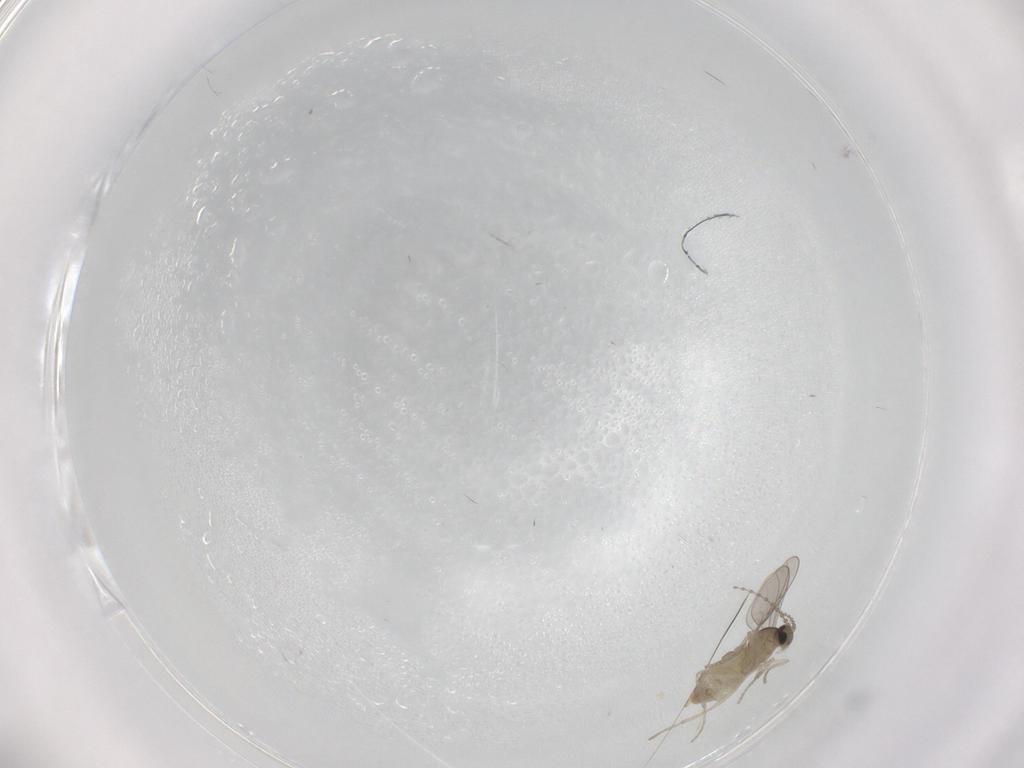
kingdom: Animalia
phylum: Arthropoda
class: Insecta
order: Diptera
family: Cecidomyiidae
